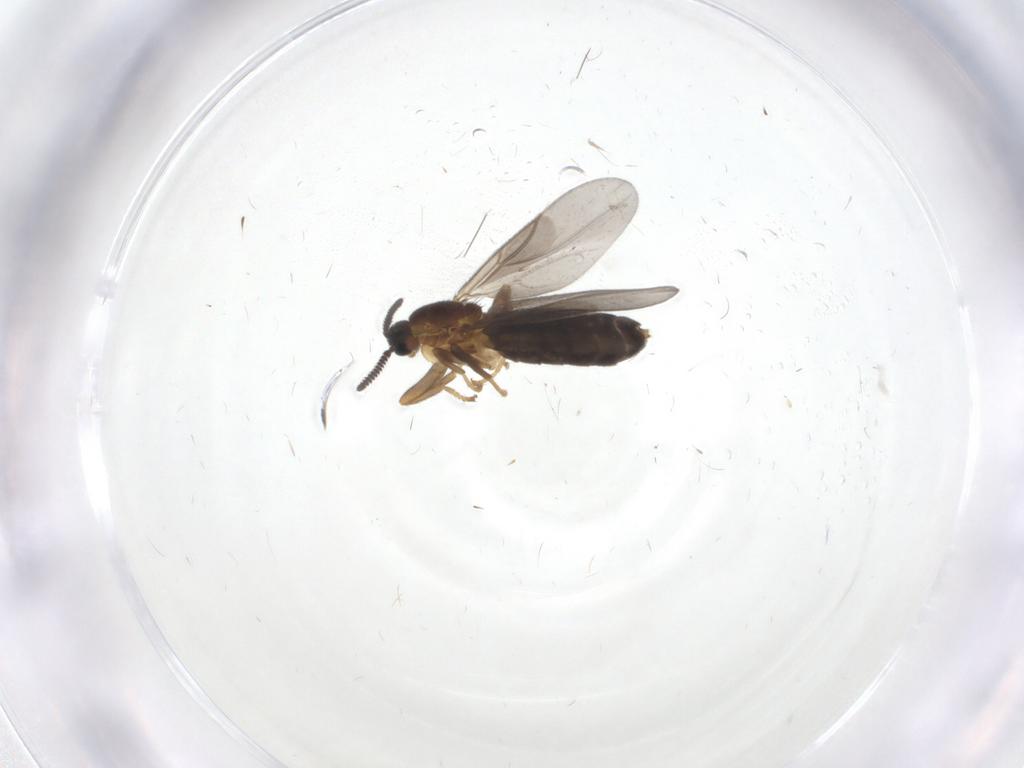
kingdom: Animalia
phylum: Arthropoda
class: Insecta
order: Diptera
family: Scatopsidae
